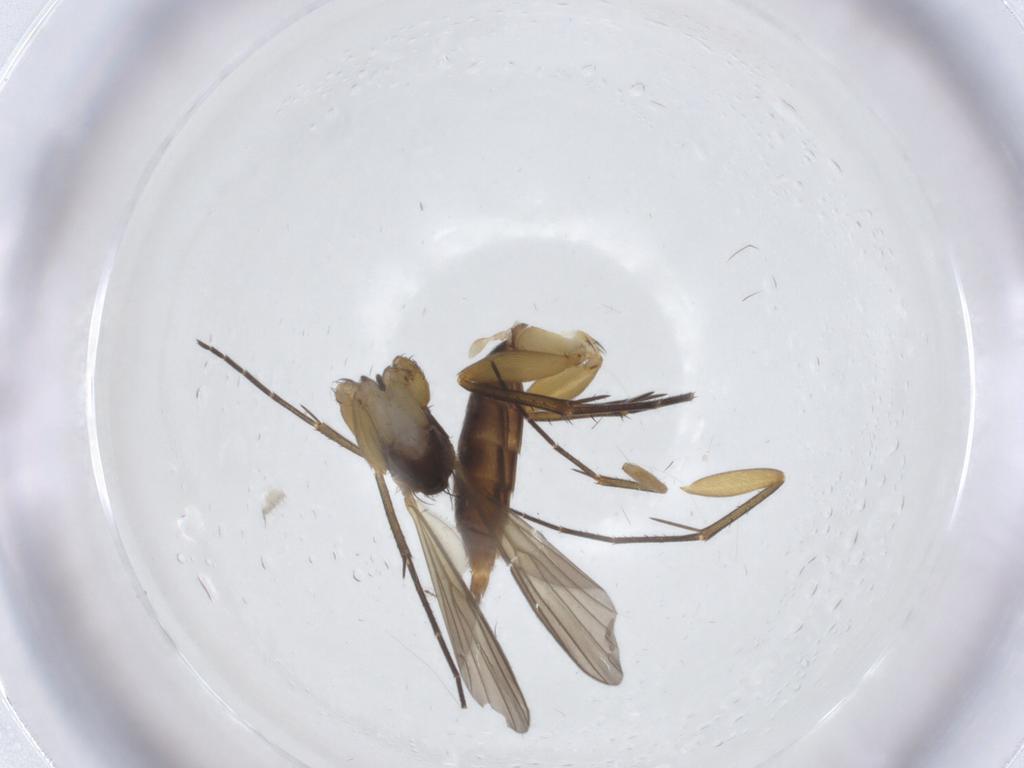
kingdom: Animalia
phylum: Arthropoda
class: Insecta
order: Diptera
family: Mycetophilidae
